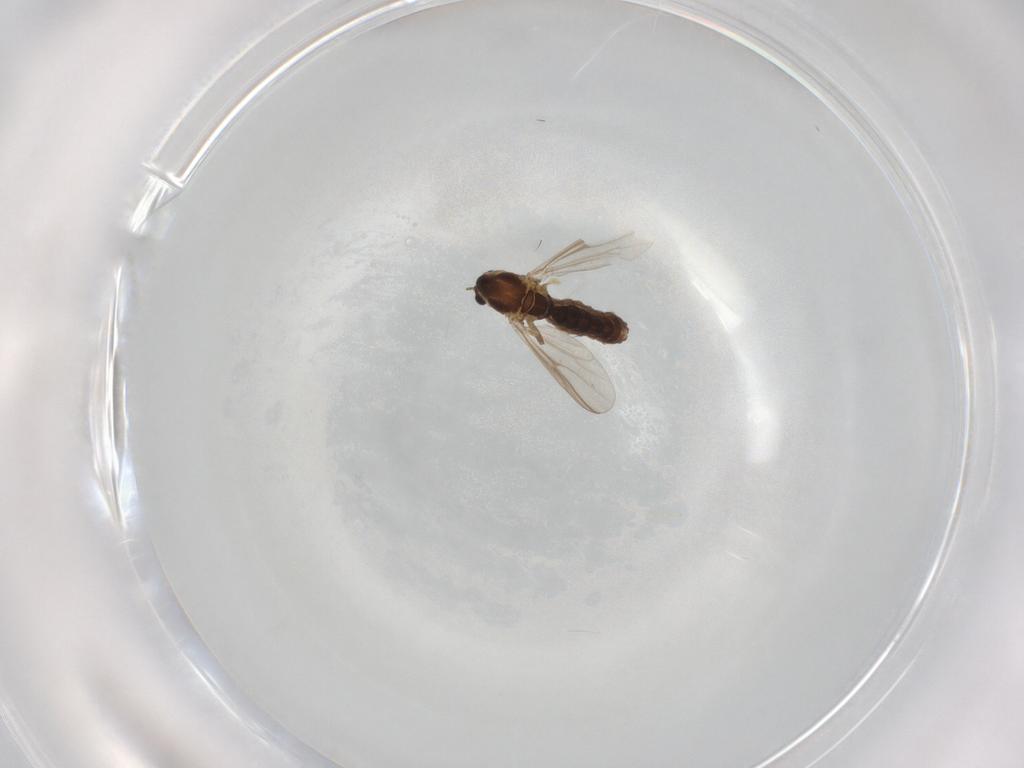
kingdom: Animalia
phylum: Arthropoda
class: Insecta
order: Diptera
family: Chironomidae
